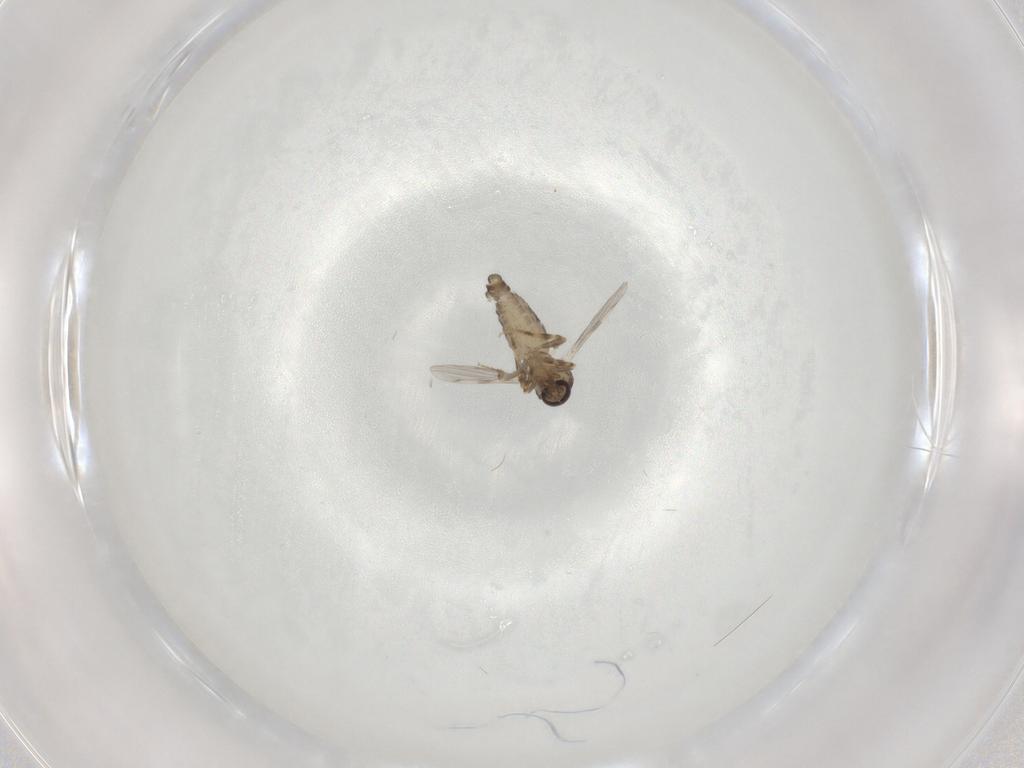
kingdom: Animalia
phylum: Arthropoda
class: Insecta
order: Diptera
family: Ceratopogonidae
